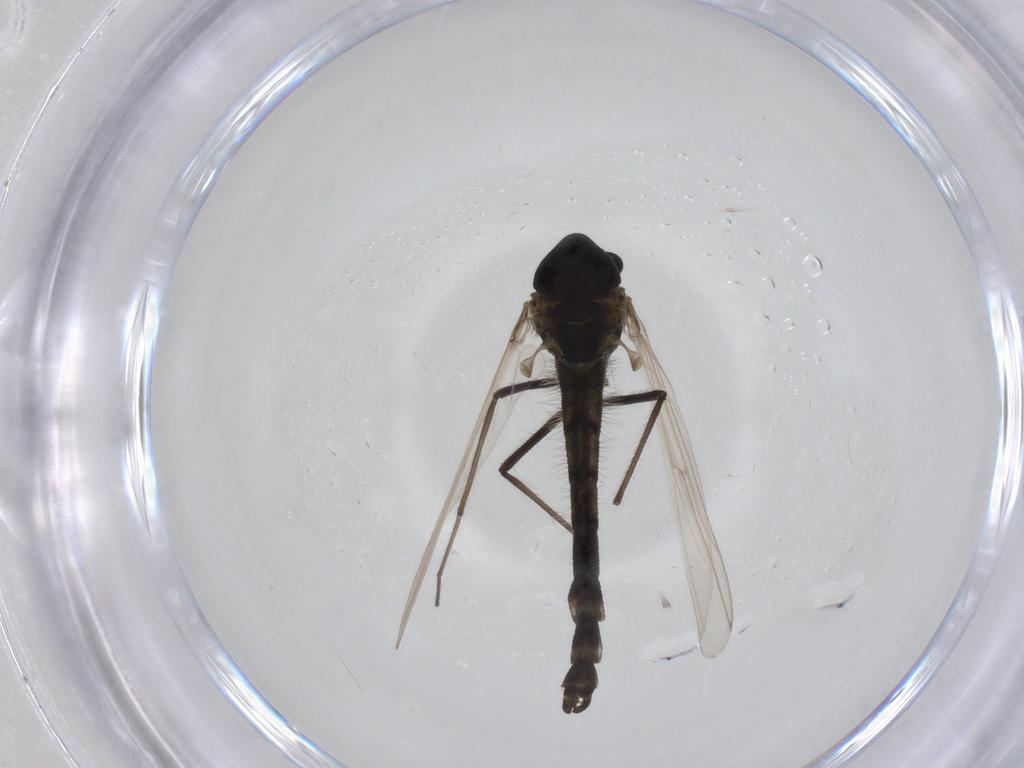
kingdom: Animalia
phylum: Arthropoda
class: Insecta
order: Diptera
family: Chironomidae
